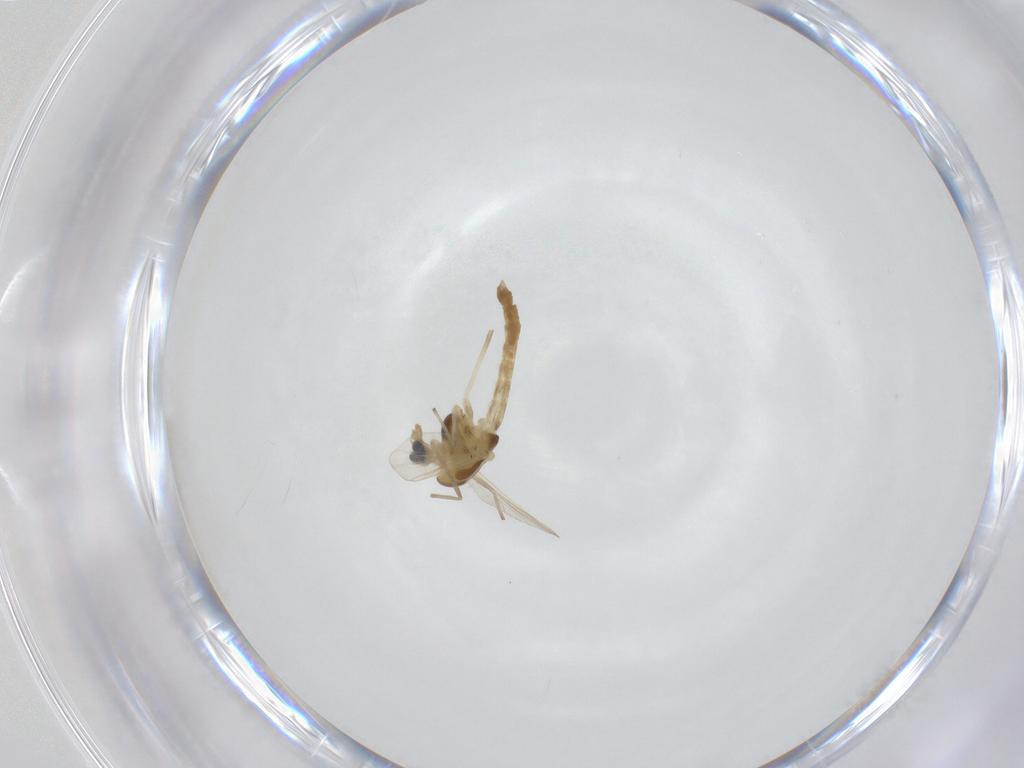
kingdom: Animalia
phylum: Arthropoda
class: Insecta
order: Diptera
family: Chironomidae
